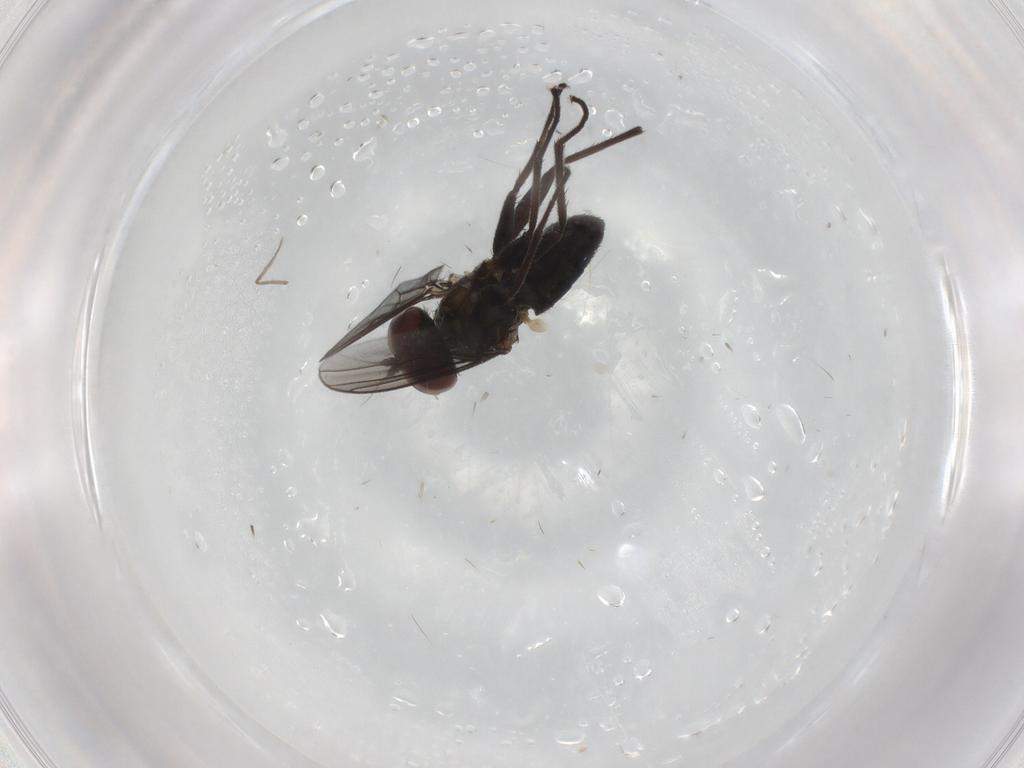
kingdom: Animalia
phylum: Arthropoda
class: Insecta
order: Diptera
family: Dolichopodidae
